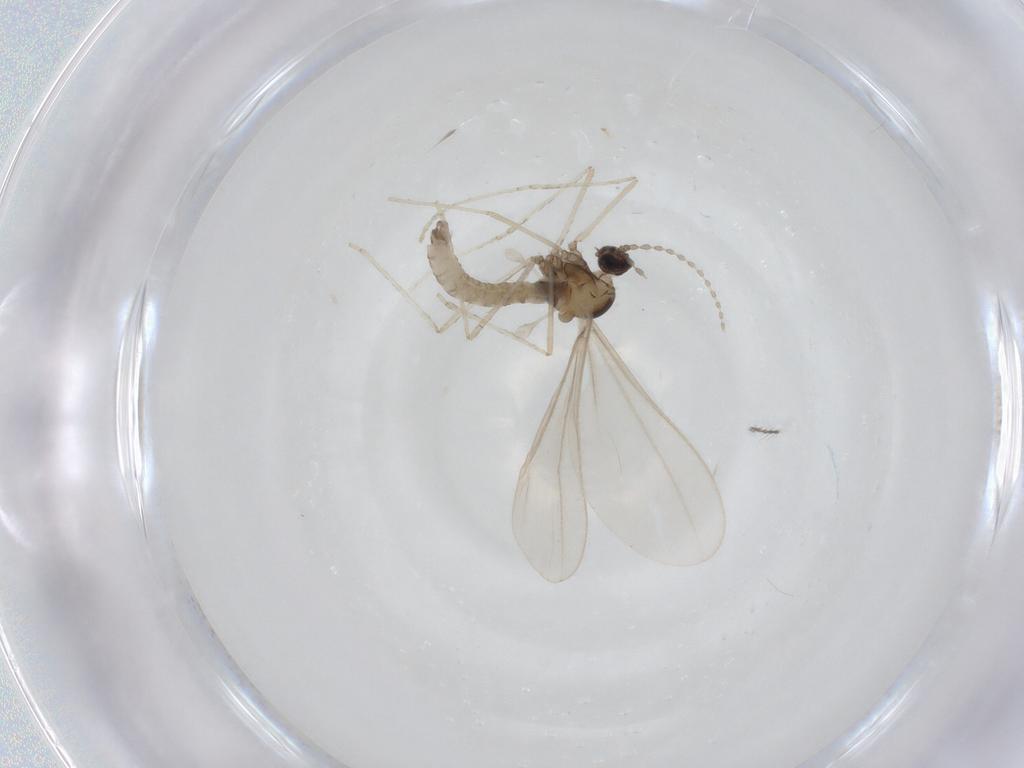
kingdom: Animalia
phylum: Arthropoda
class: Insecta
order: Diptera
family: Cecidomyiidae
